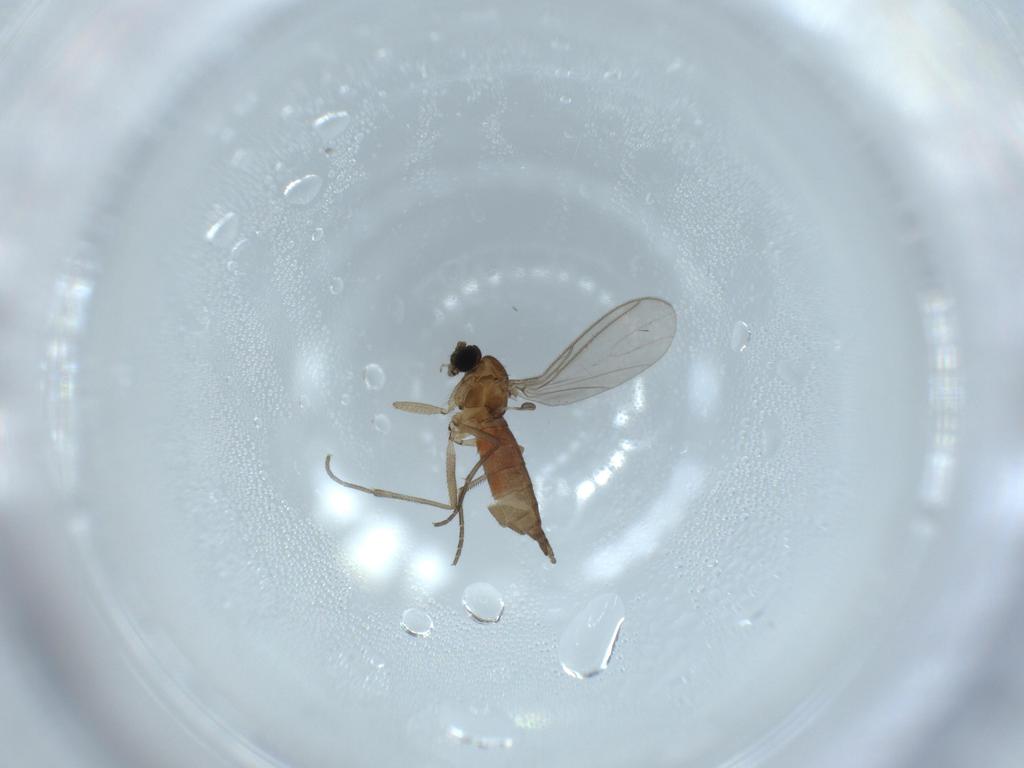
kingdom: Animalia
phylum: Arthropoda
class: Insecta
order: Diptera
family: Sciaridae
